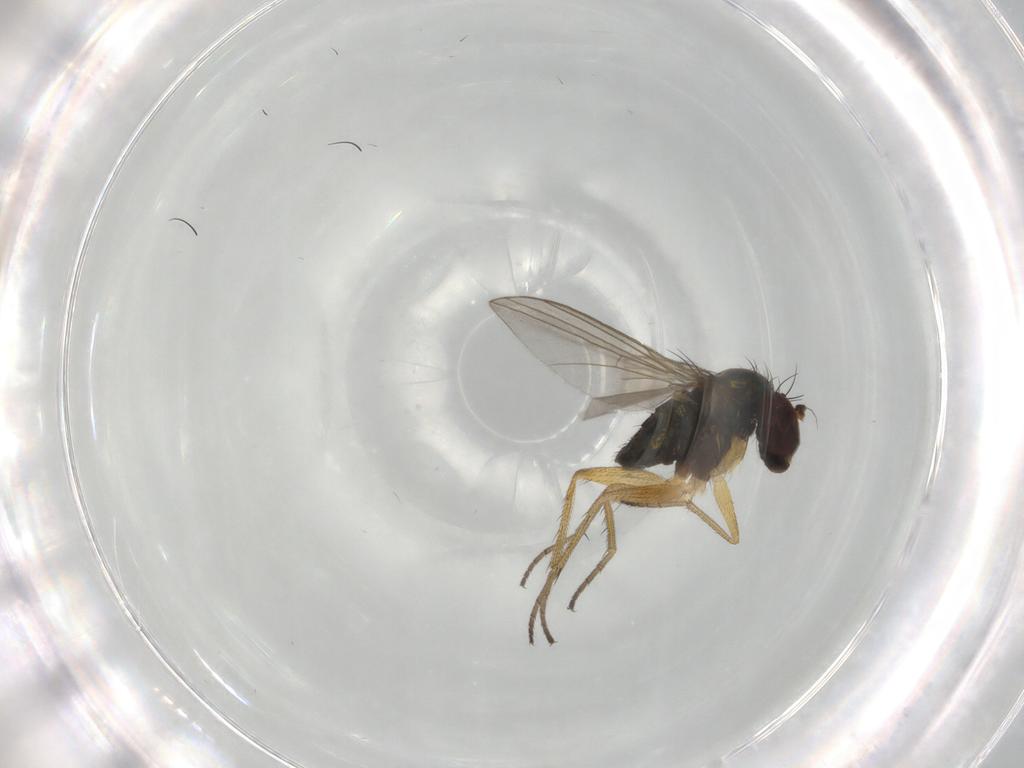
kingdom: Animalia
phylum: Arthropoda
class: Insecta
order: Diptera
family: Dolichopodidae
